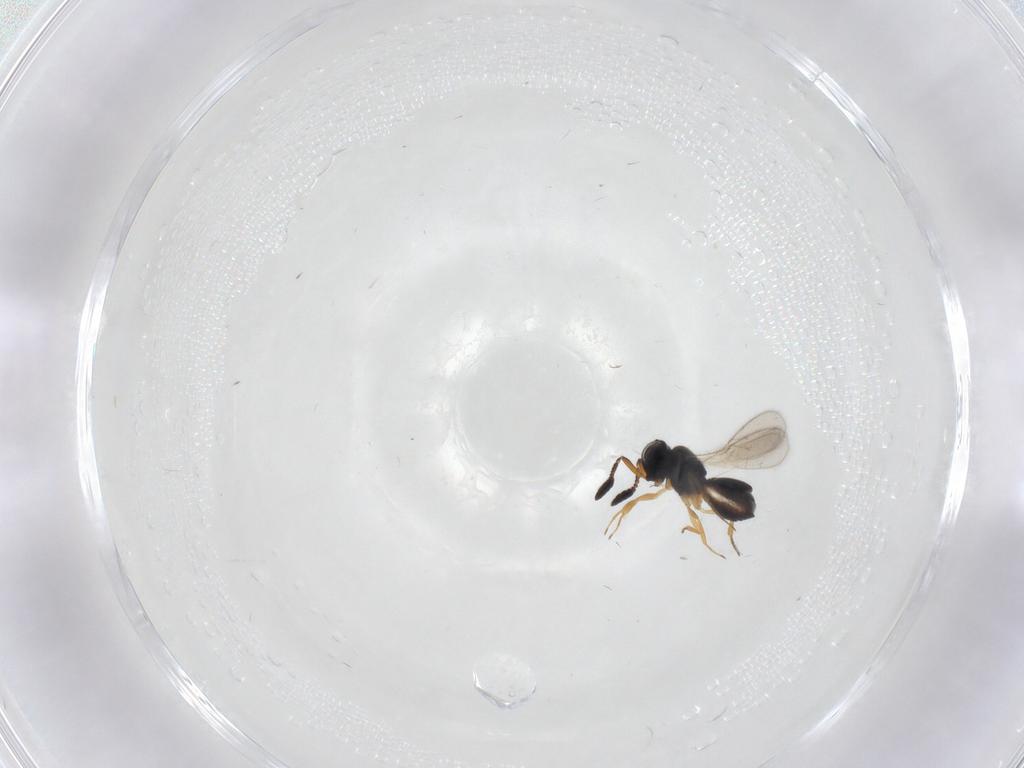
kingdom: Animalia
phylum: Arthropoda
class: Insecta
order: Hymenoptera
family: Scelionidae
